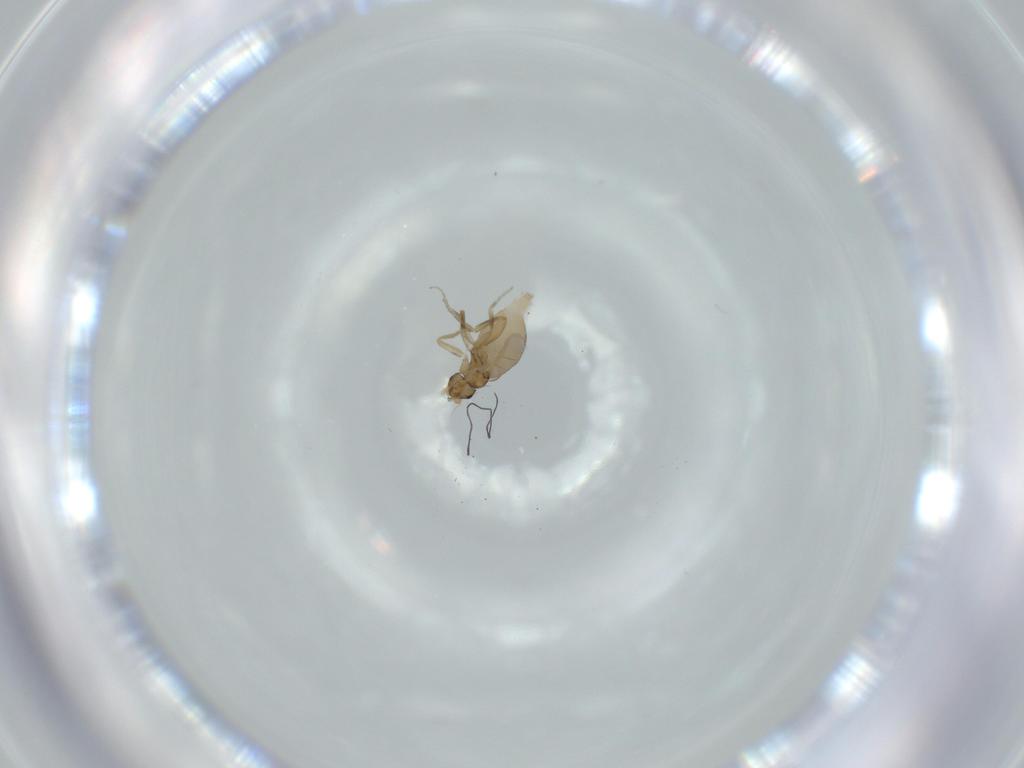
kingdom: Animalia
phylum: Arthropoda
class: Insecta
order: Diptera
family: Phoridae
